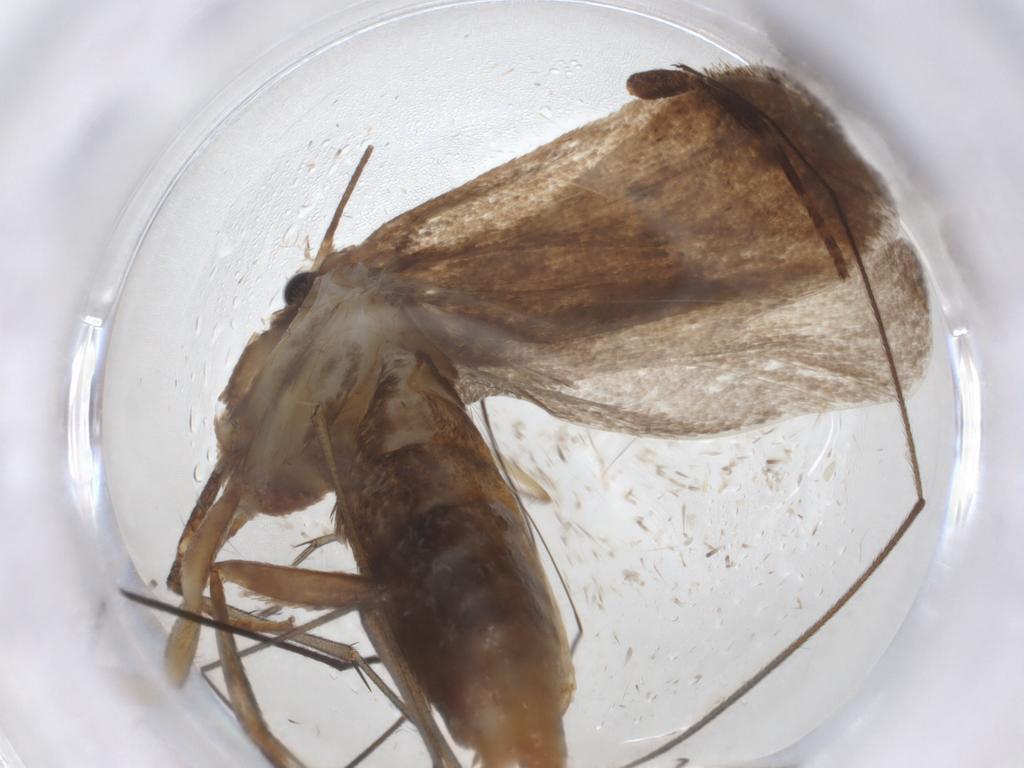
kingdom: Animalia
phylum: Arthropoda
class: Insecta
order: Lepidoptera
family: Oecophoridae
